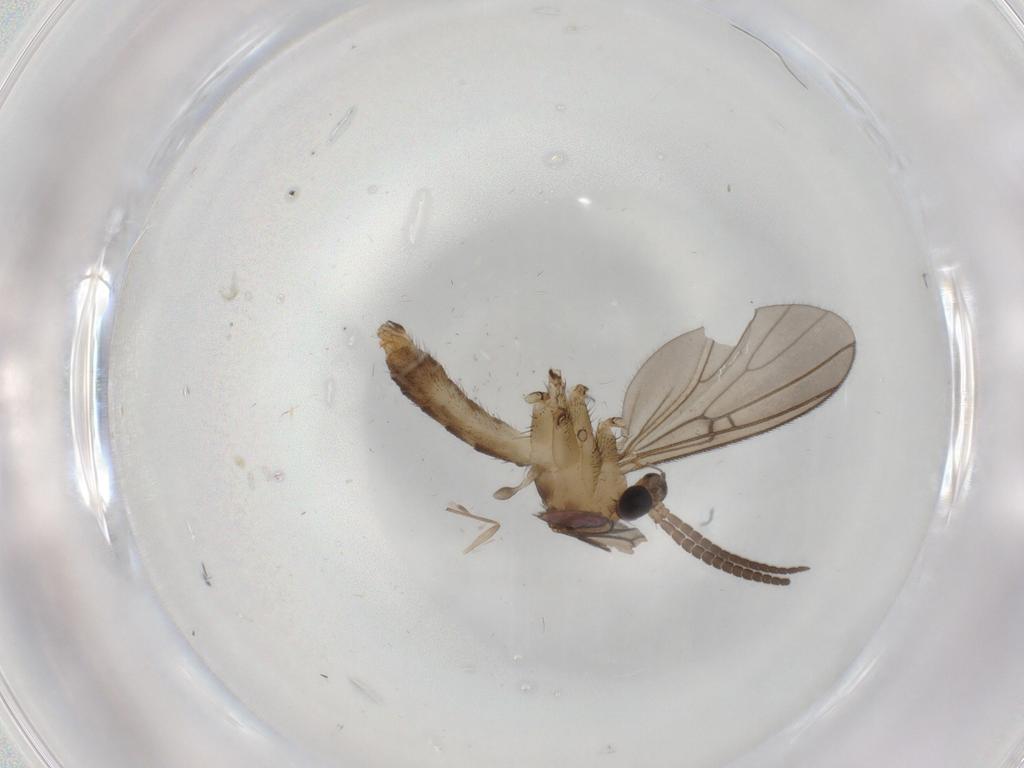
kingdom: Animalia
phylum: Arthropoda
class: Insecta
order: Diptera
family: Phoridae
